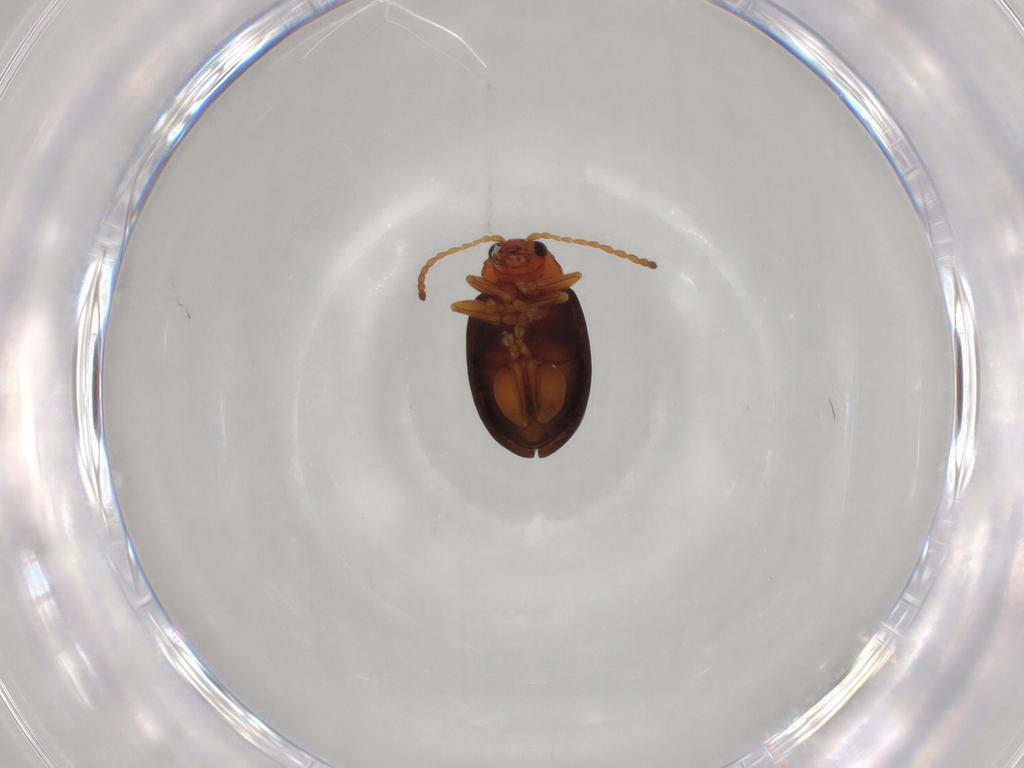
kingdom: Animalia
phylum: Arthropoda
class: Insecta
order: Coleoptera
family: Chrysomelidae
